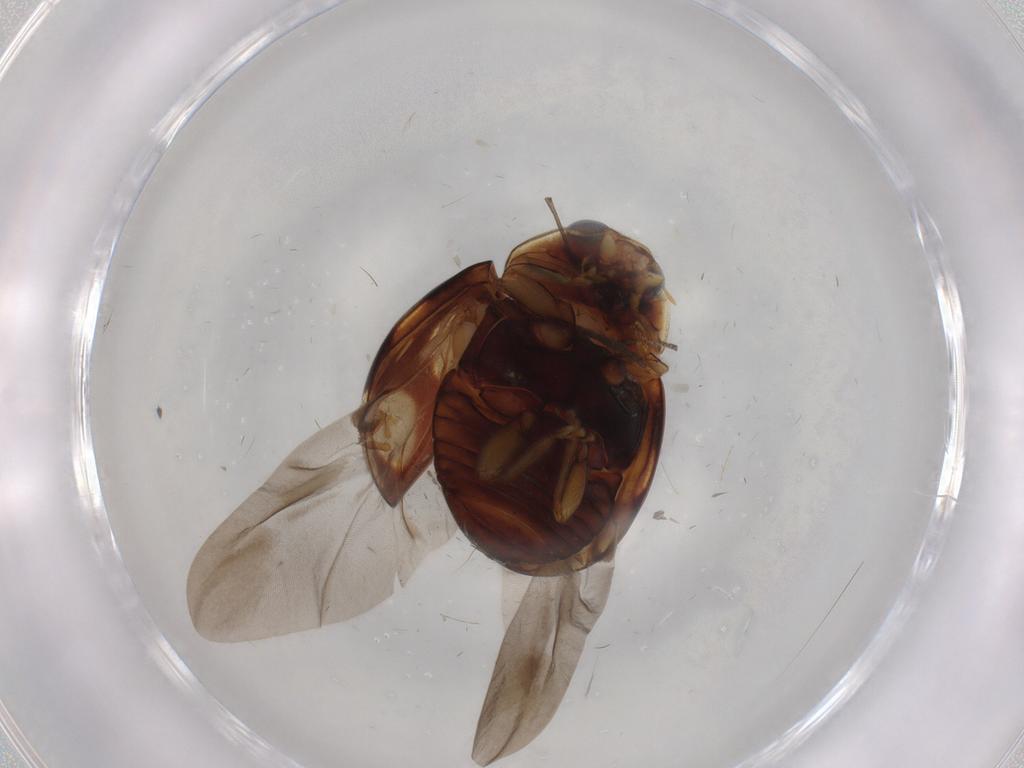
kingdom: Animalia
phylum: Arthropoda
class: Insecta
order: Coleoptera
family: Coccinellidae
